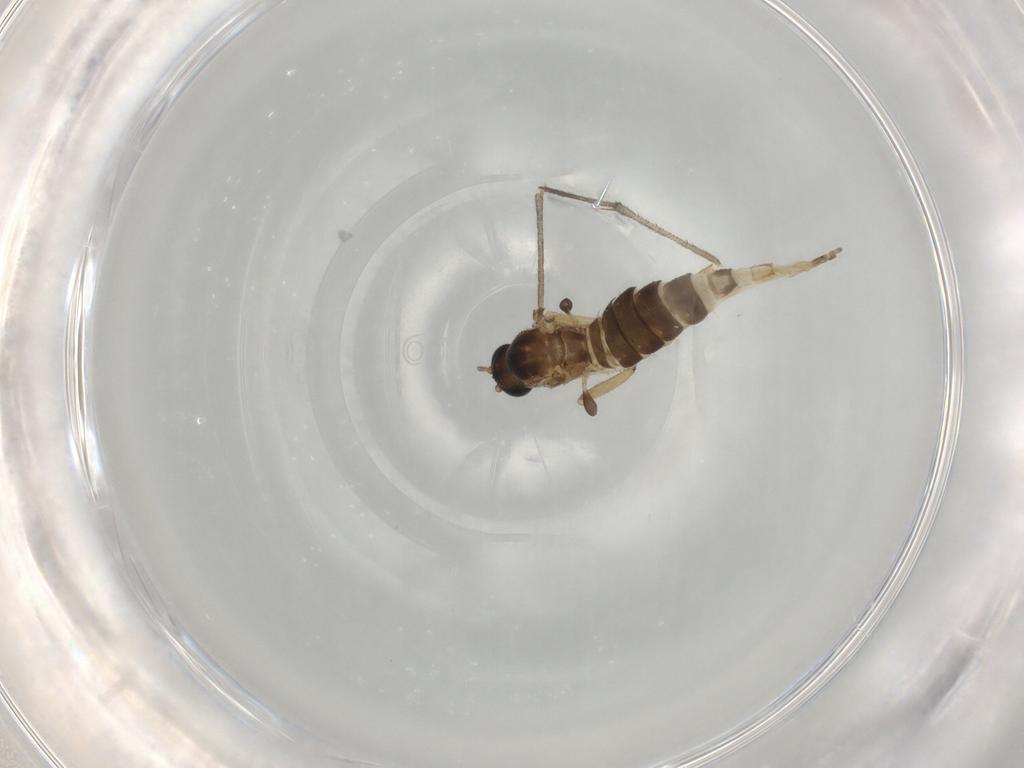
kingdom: Animalia
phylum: Arthropoda
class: Insecta
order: Diptera
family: Sciaridae
